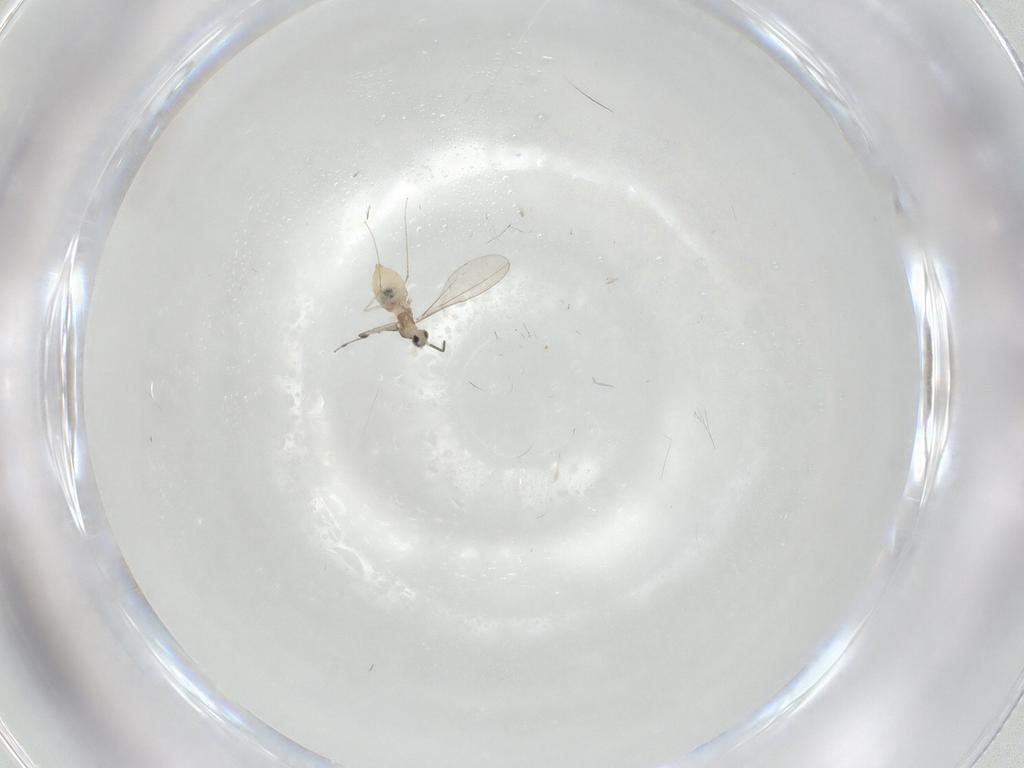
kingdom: Animalia
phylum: Arthropoda
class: Insecta
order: Diptera
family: Cecidomyiidae
